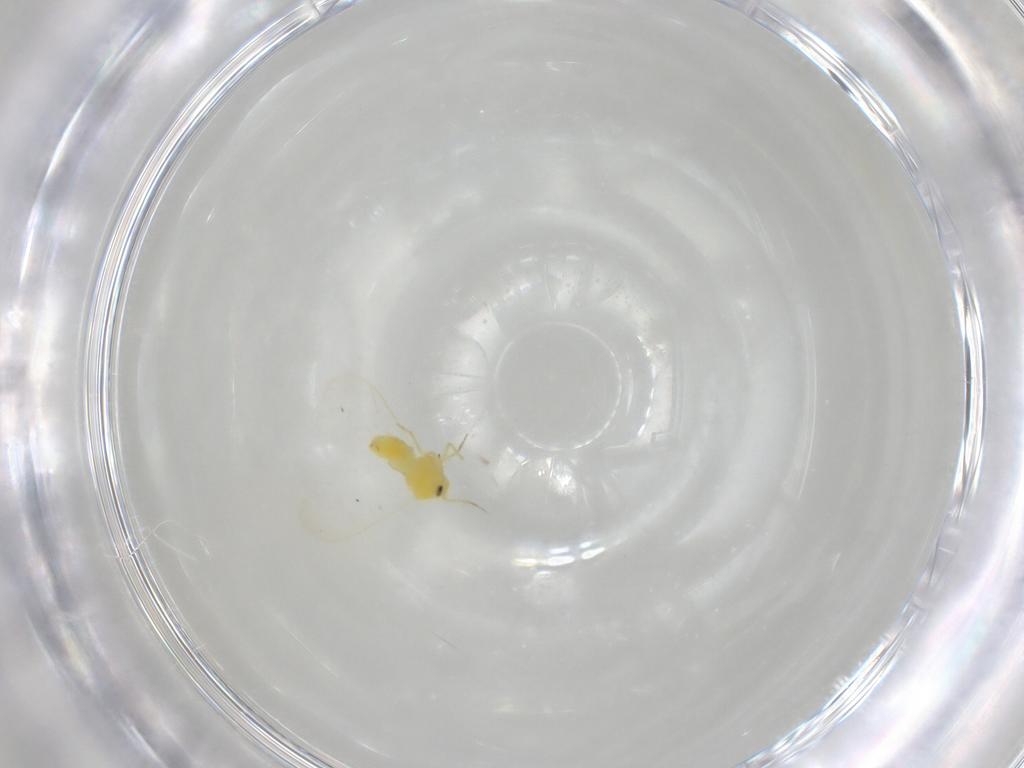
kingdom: Animalia
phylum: Arthropoda
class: Insecta
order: Hemiptera
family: Aleyrodidae
